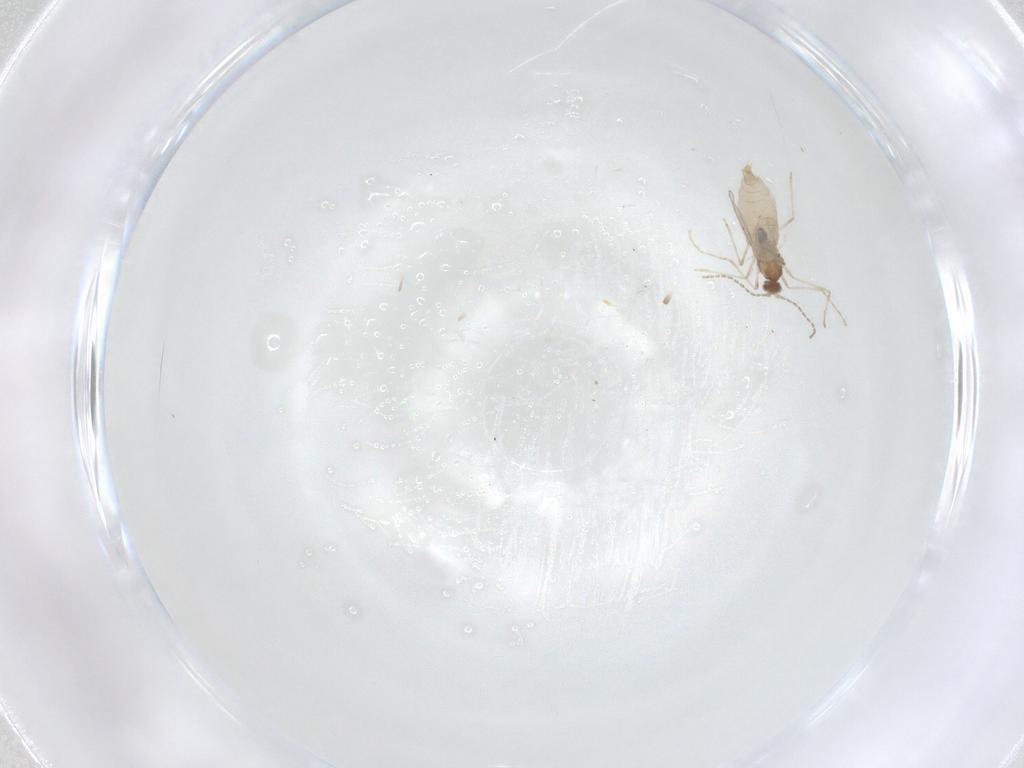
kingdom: Animalia
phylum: Arthropoda
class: Insecta
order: Diptera
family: Cecidomyiidae
